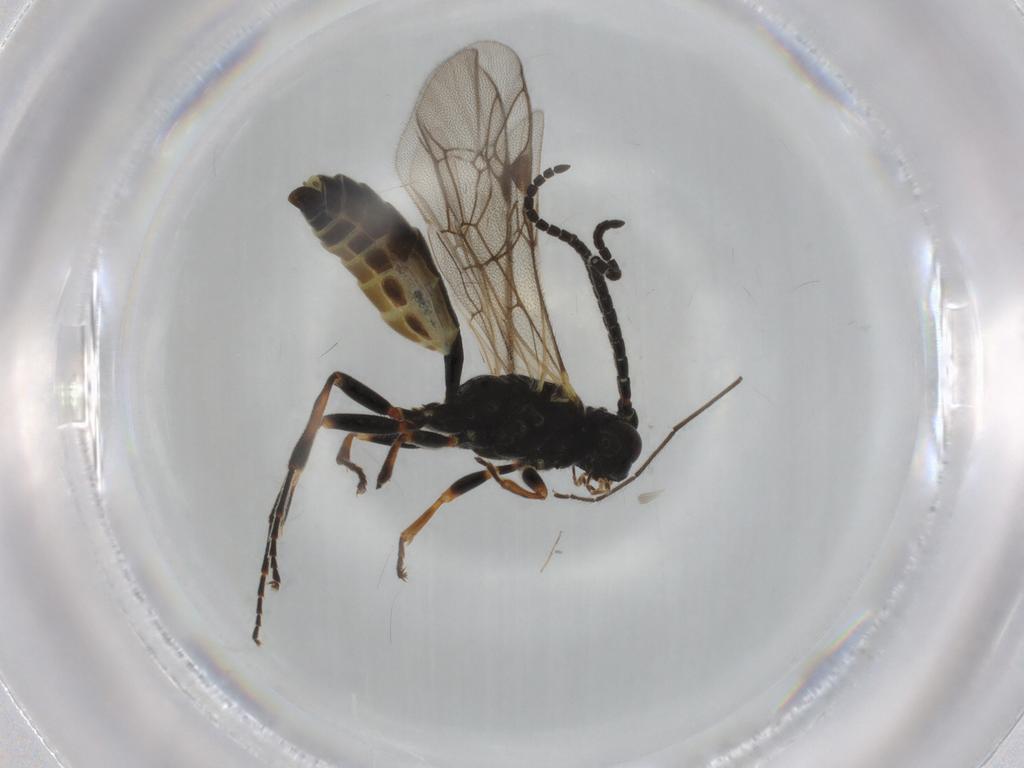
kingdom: Animalia
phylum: Arthropoda
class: Insecta
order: Hymenoptera
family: Ichneumonidae
